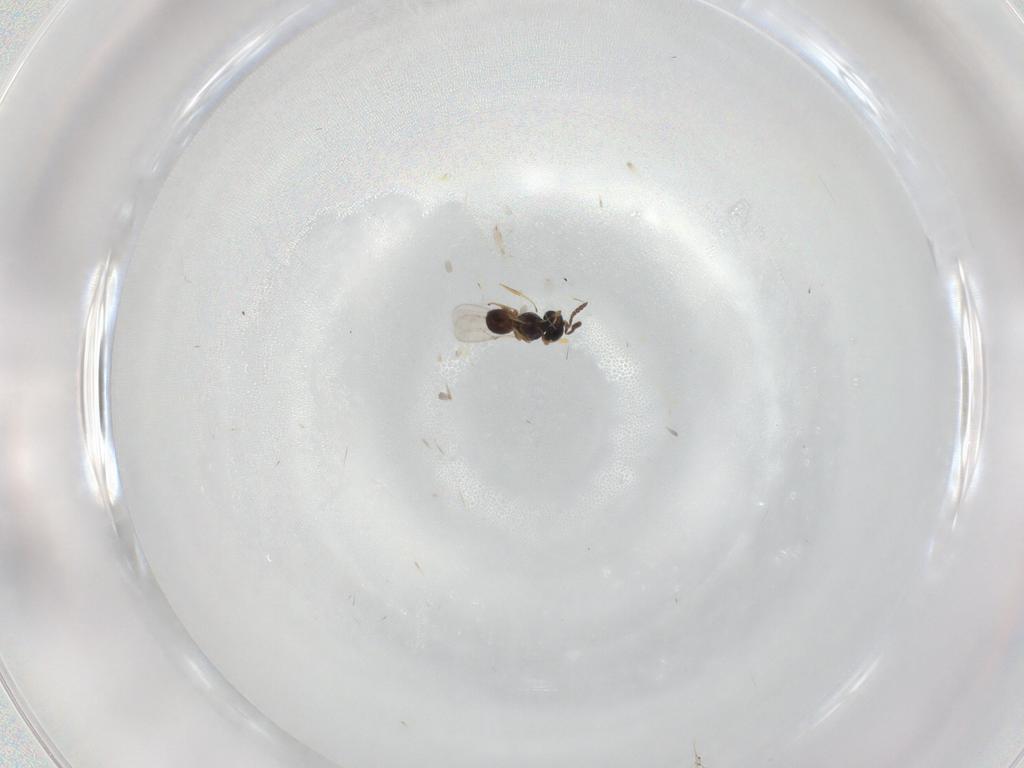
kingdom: Animalia
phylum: Arthropoda
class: Insecta
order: Hymenoptera
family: Scelionidae
